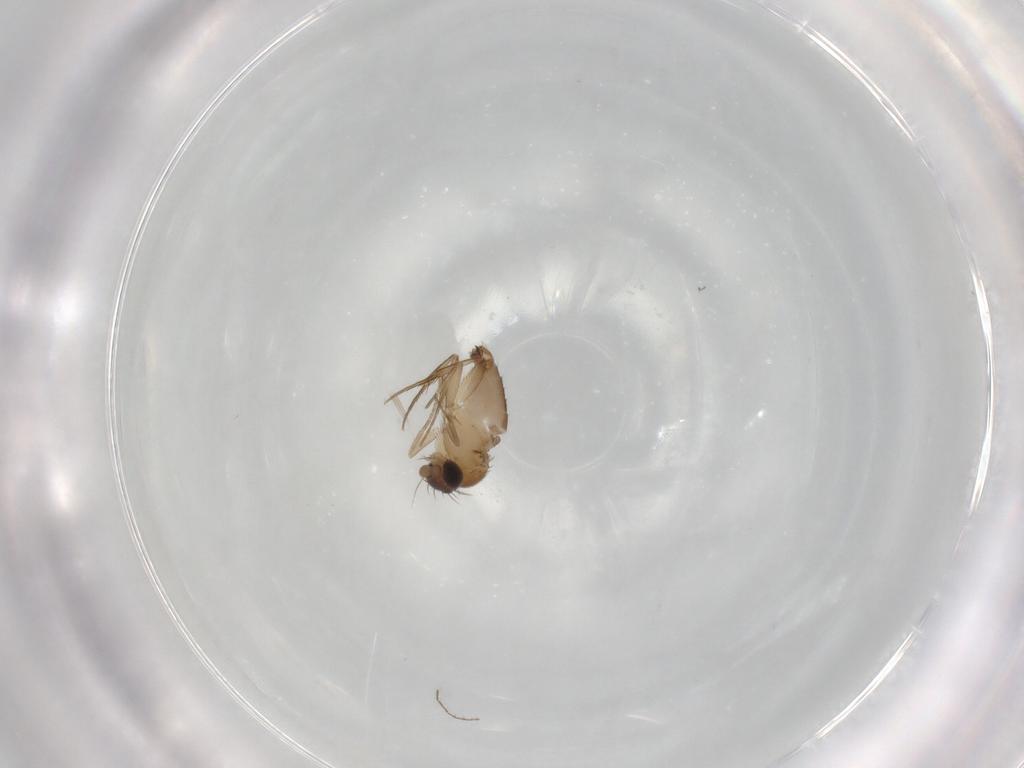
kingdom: Animalia
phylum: Arthropoda
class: Insecta
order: Diptera
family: Phoridae
